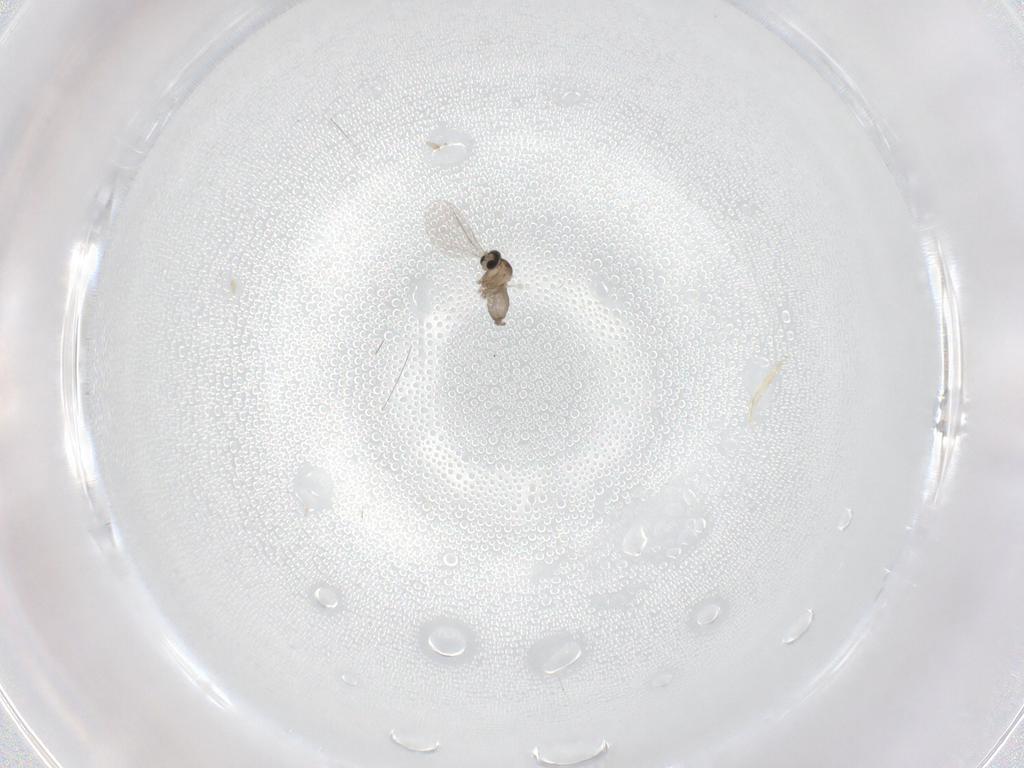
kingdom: Animalia
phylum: Arthropoda
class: Insecta
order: Diptera
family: Cecidomyiidae
